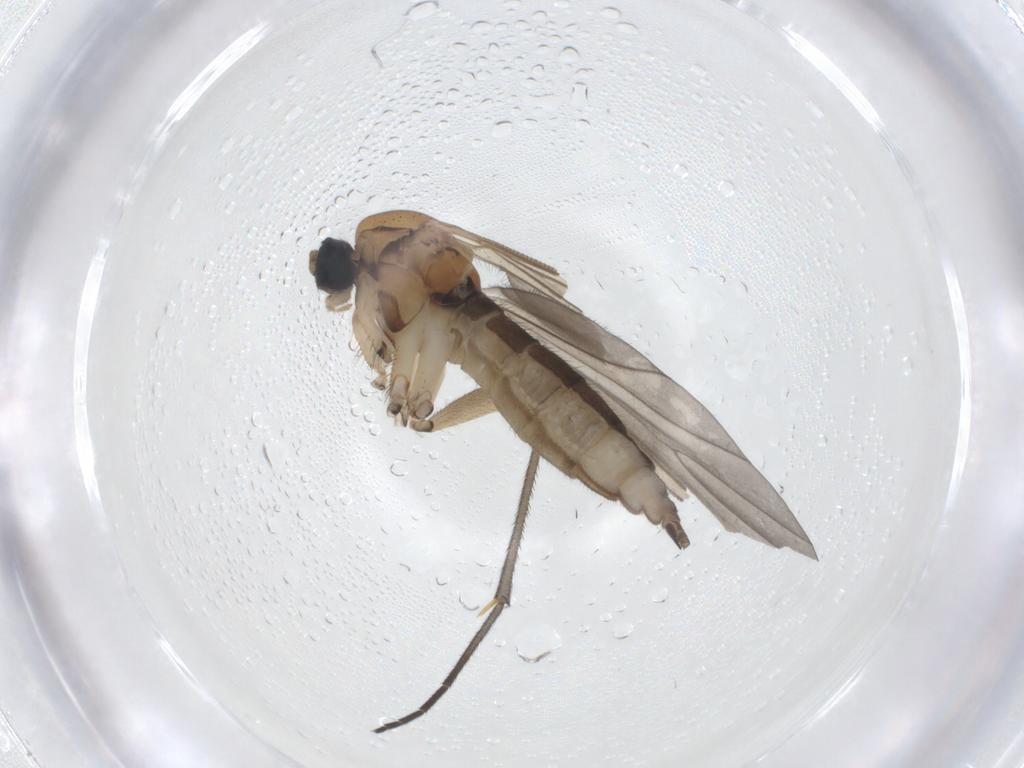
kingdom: Animalia
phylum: Arthropoda
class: Insecta
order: Diptera
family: Sciaridae
